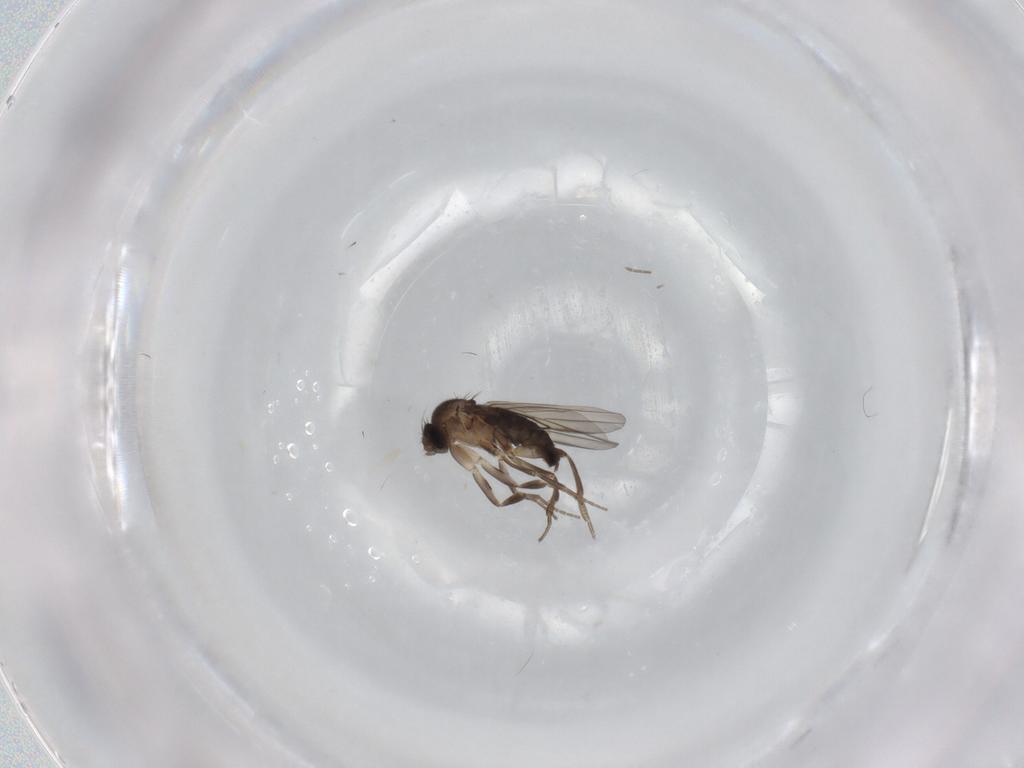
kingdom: Animalia
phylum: Arthropoda
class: Insecta
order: Diptera
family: Phoridae
